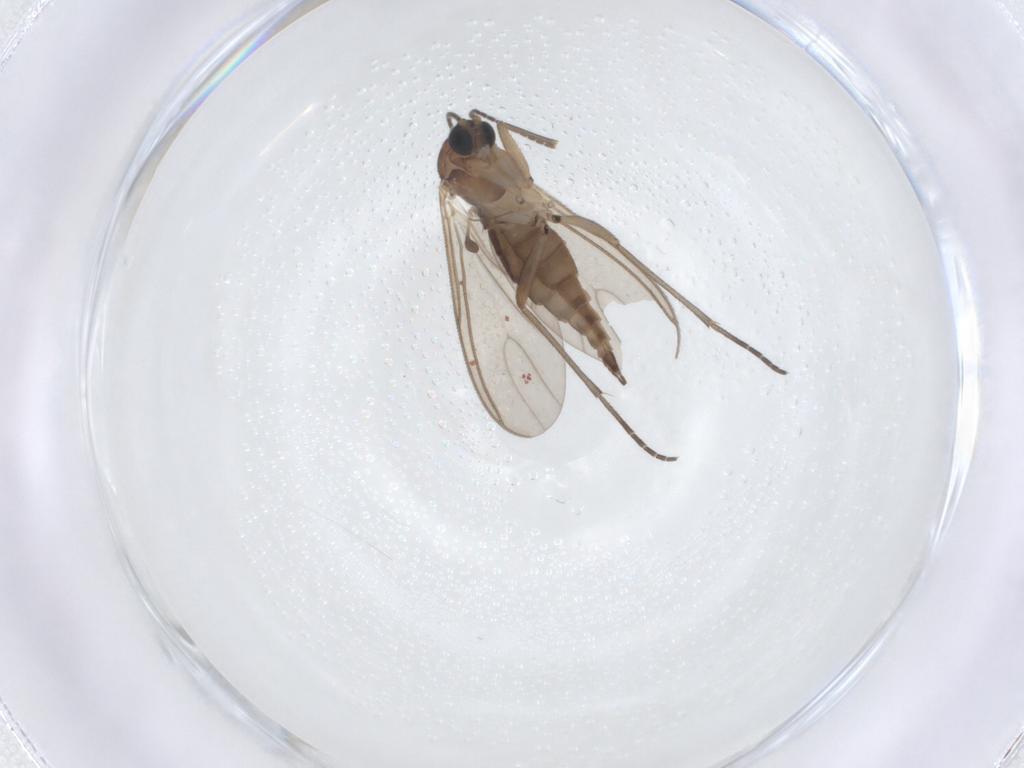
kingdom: Animalia
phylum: Arthropoda
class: Insecta
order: Diptera
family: Sciaridae
